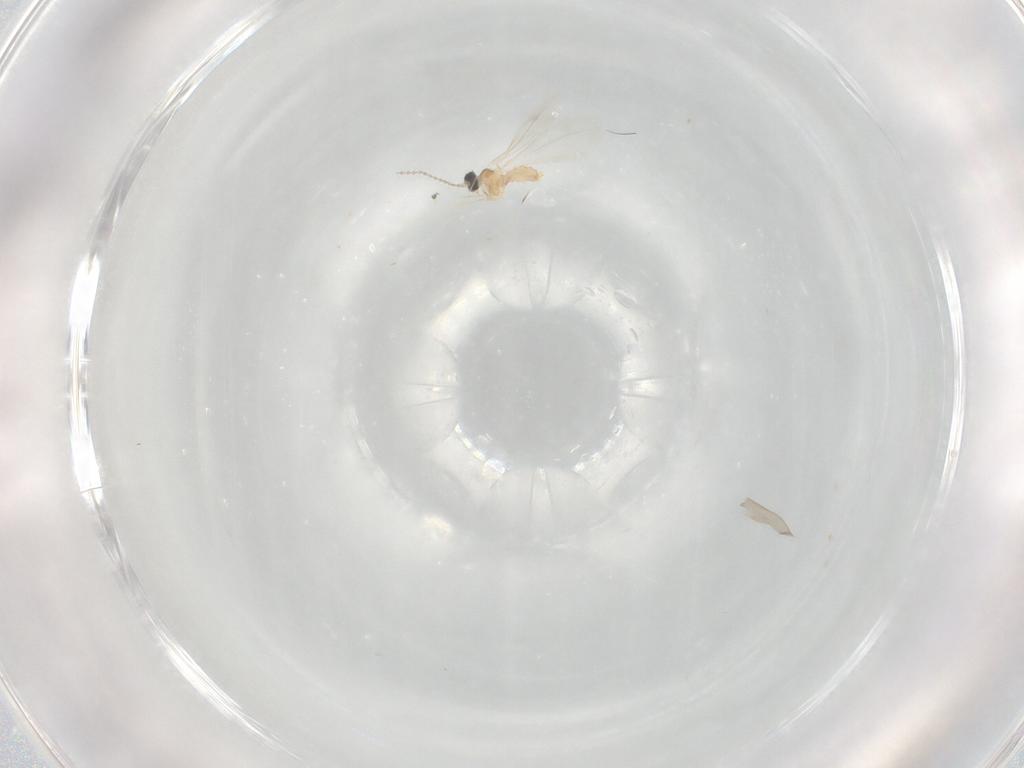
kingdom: Animalia
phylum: Arthropoda
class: Insecta
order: Diptera
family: Cecidomyiidae
